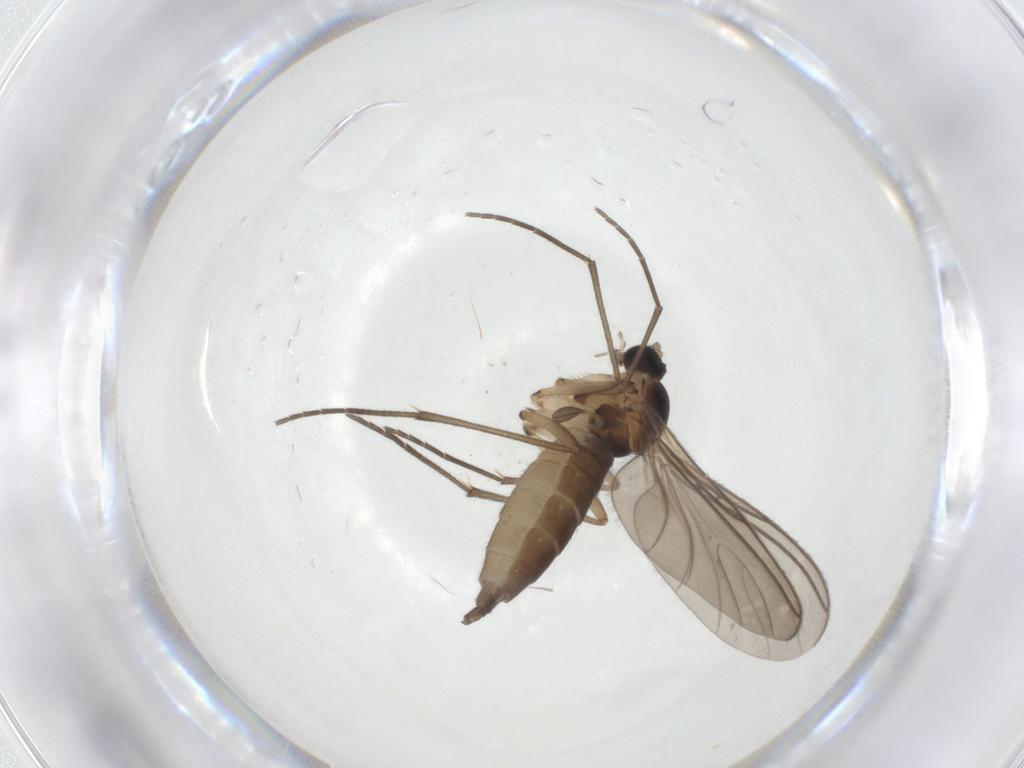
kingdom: Animalia
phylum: Arthropoda
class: Insecta
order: Diptera
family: Sciaridae
